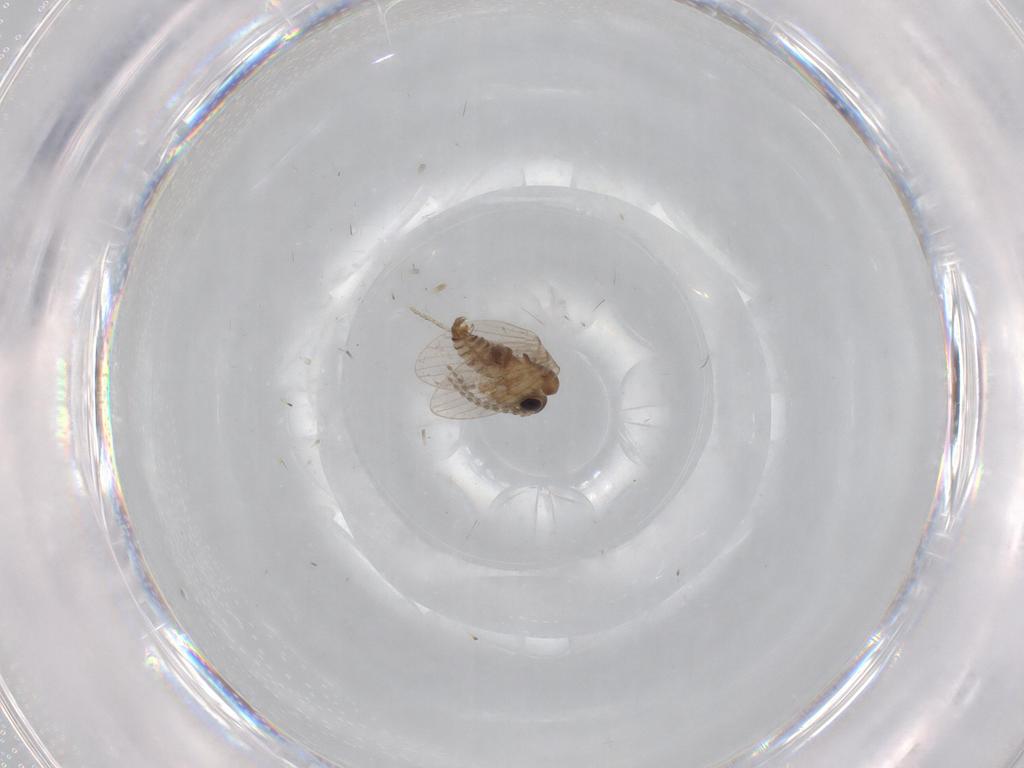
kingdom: Animalia
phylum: Arthropoda
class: Insecta
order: Diptera
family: Psychodidae
